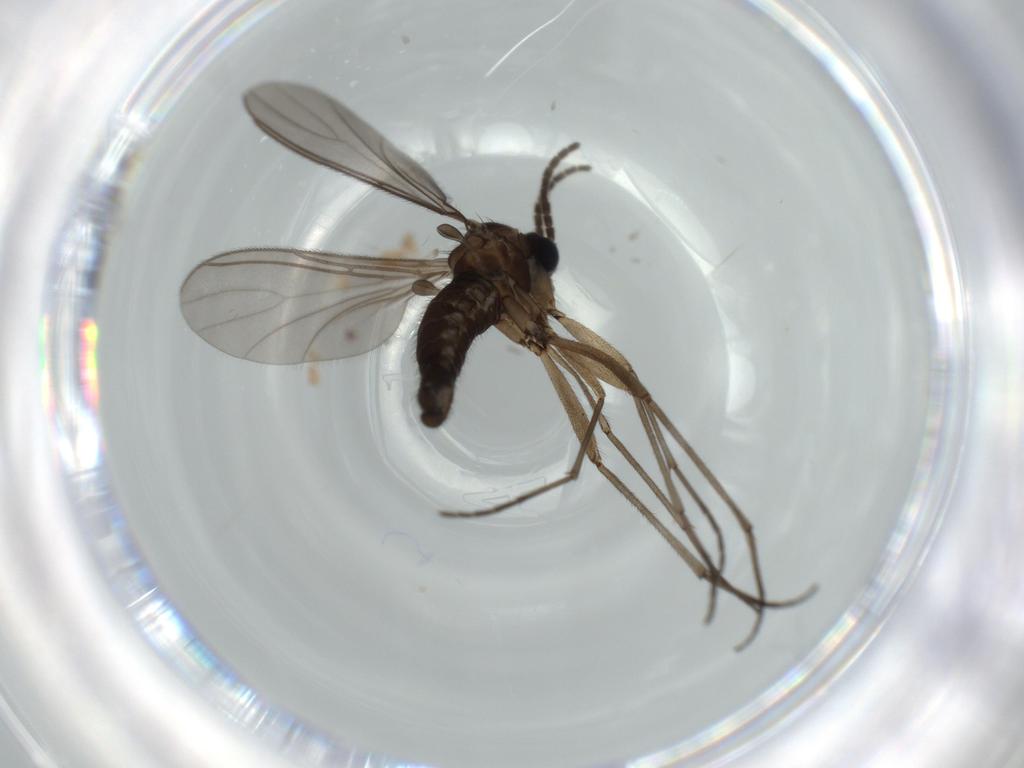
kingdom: Animalia
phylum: Arthropoda
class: Insecta
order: Diptera
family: Sciaridae
